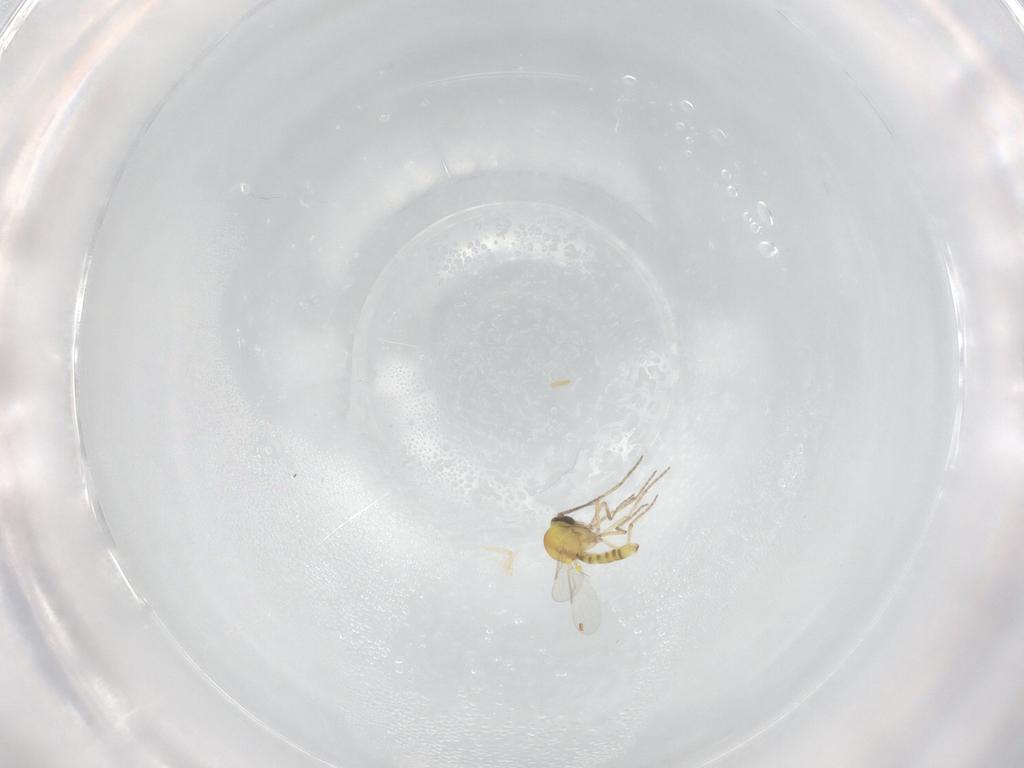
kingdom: Animalia
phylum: Arthropoda
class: Insecta
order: Diptera
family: Ceratopogonidae
